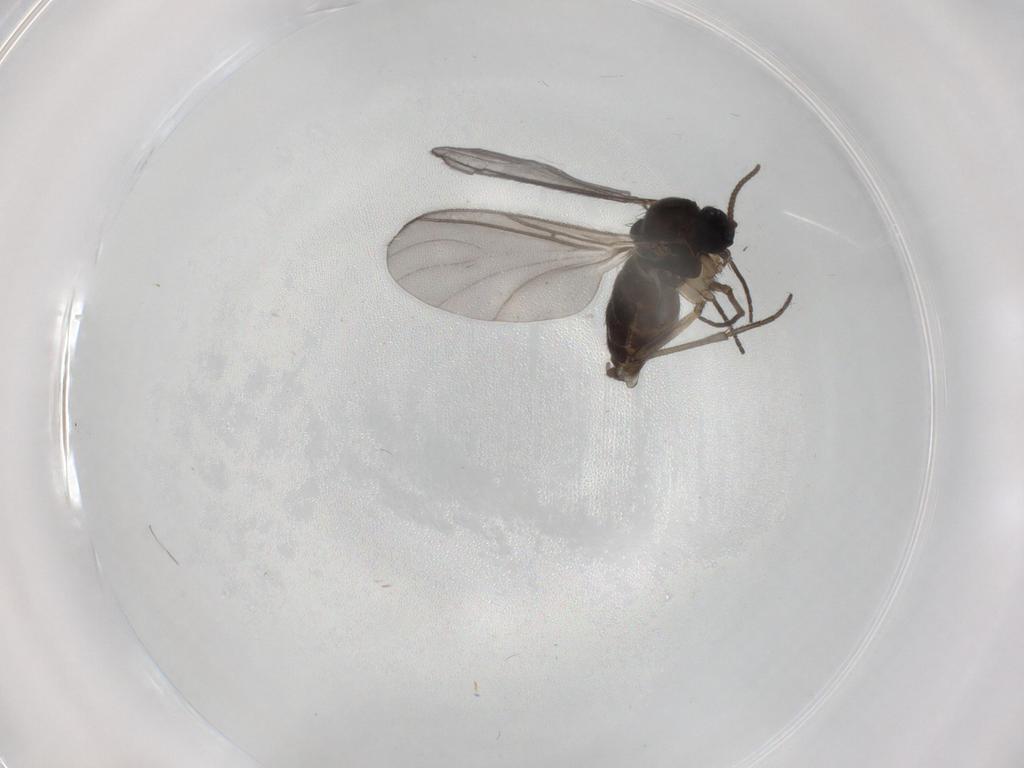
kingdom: Animalia
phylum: Arthropoda
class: Insecta
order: Diptera
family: Sciaridae
